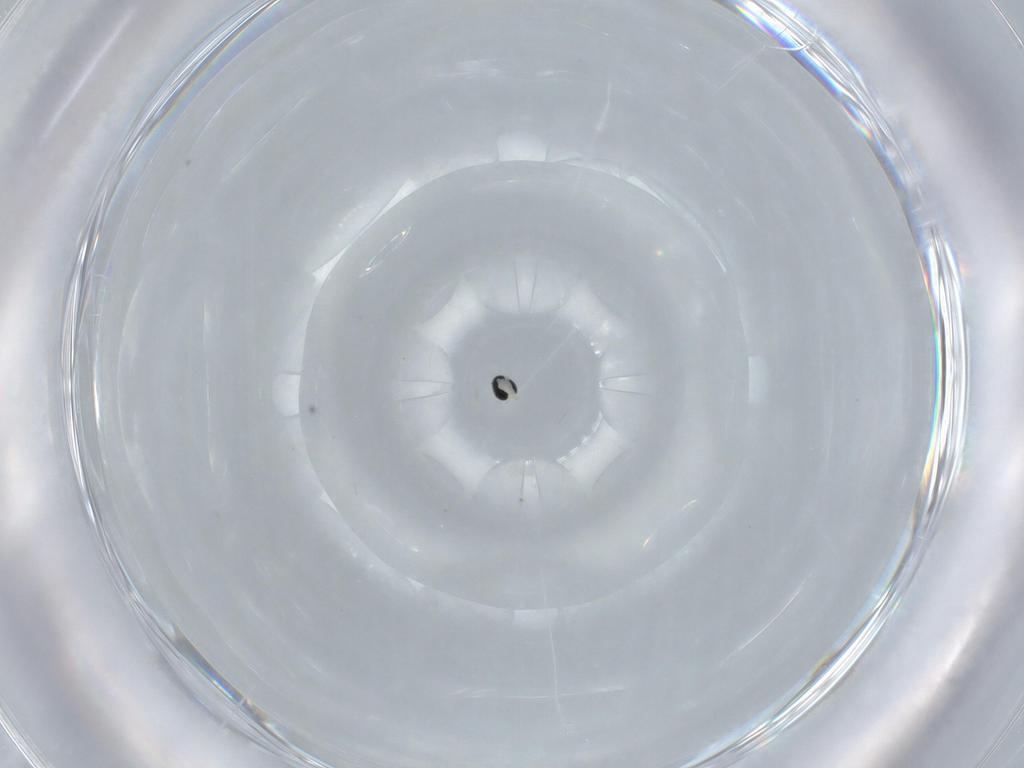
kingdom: Animalia
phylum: Arthropoda
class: Insecta
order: Diptera
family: Cecidomyiidae
